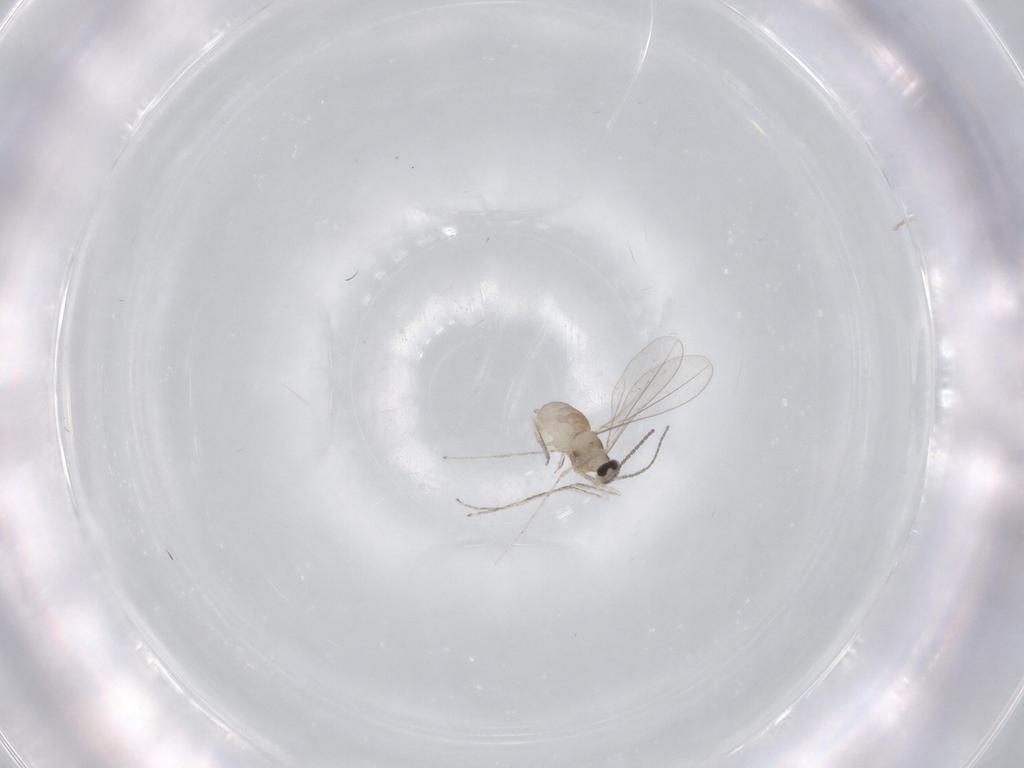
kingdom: Animalia
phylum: Arthropoda
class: Insecta
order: Diptera
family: Cecidomyiidae
